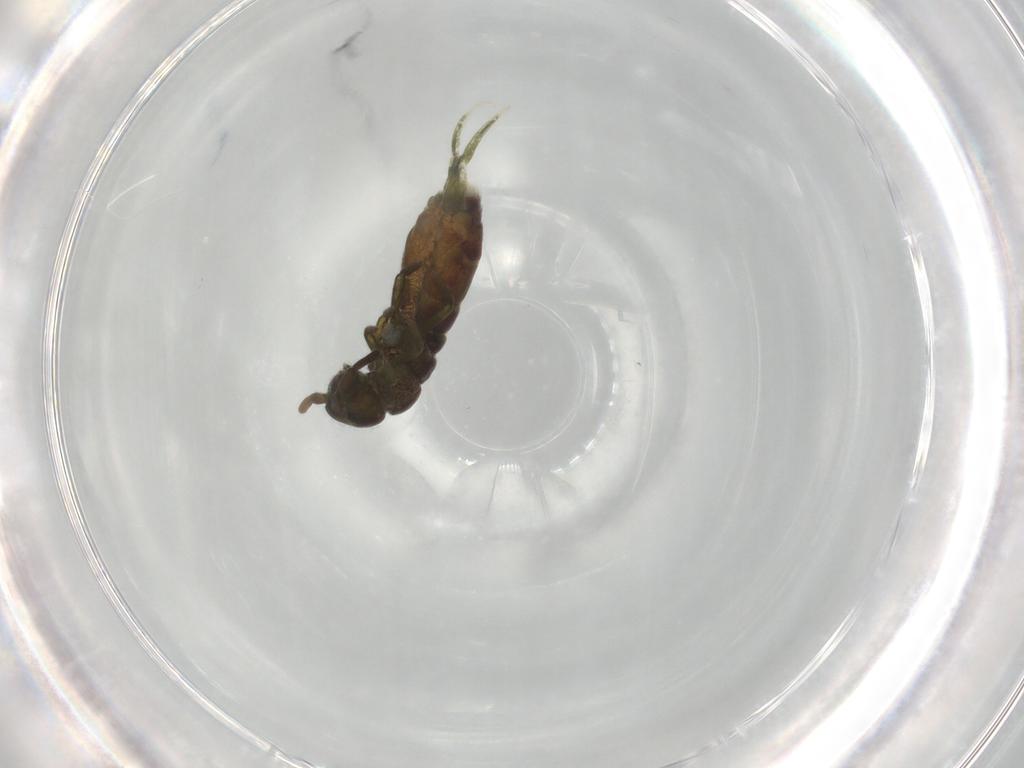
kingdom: Animalia
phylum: Arthropoda
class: Collembola
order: Entomobryomorpha
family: Isotomidae
